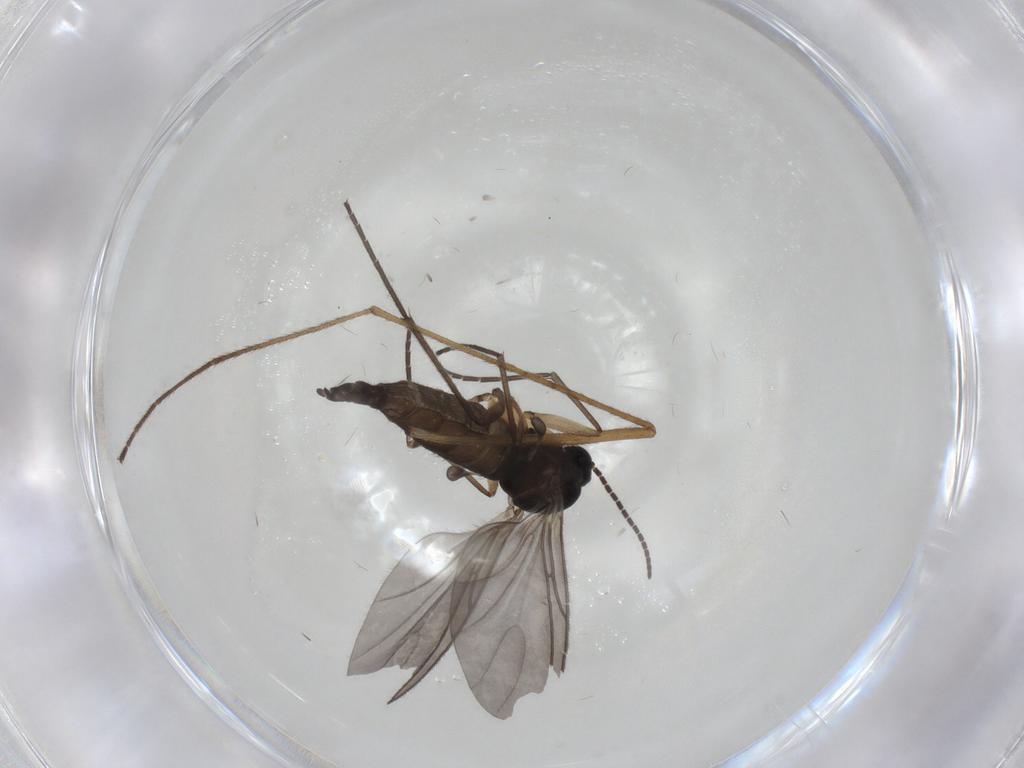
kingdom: Animalia
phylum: Arthropoda
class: Insecta
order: Diptera
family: Sciaridae
